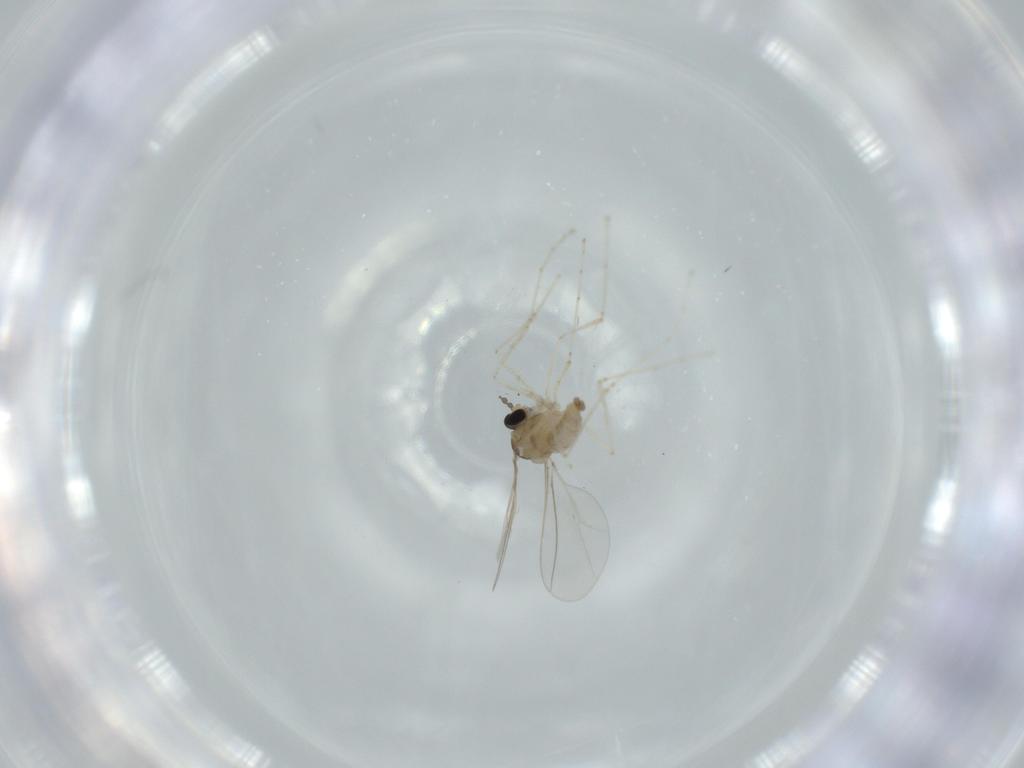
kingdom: Animalia
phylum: Arthropoda
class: Insecta
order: Diptera
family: Cecidomyiidae
